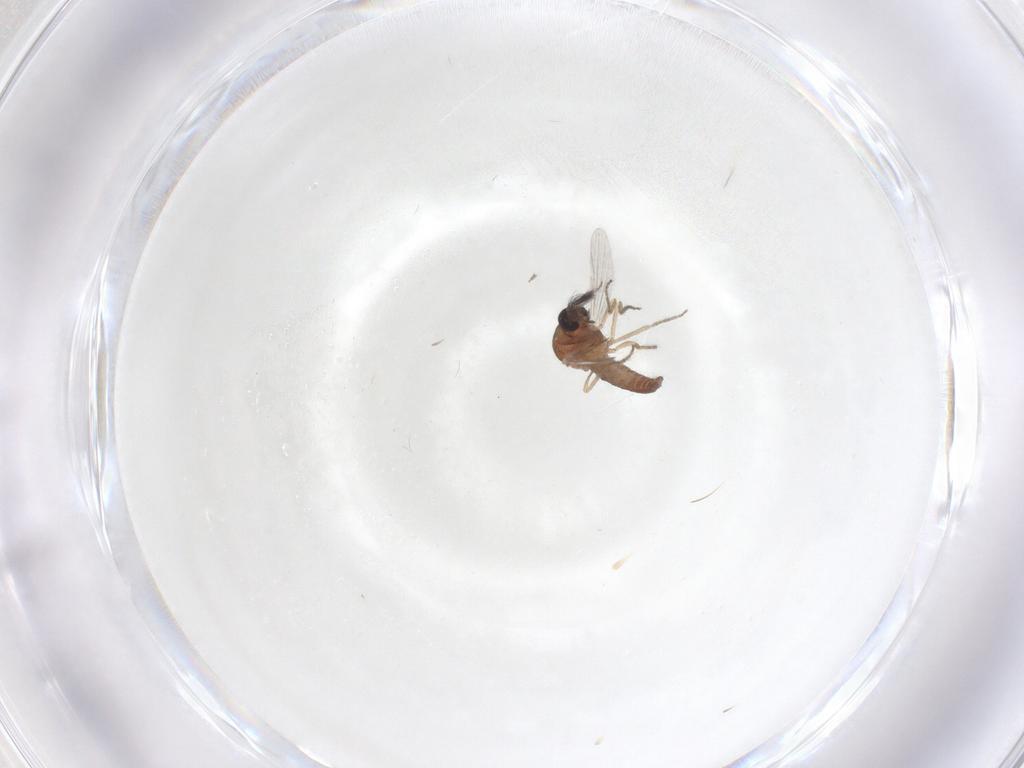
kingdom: Animalia
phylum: Arthropoda
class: Insecta
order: Diptera
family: Ceratopogonidae
